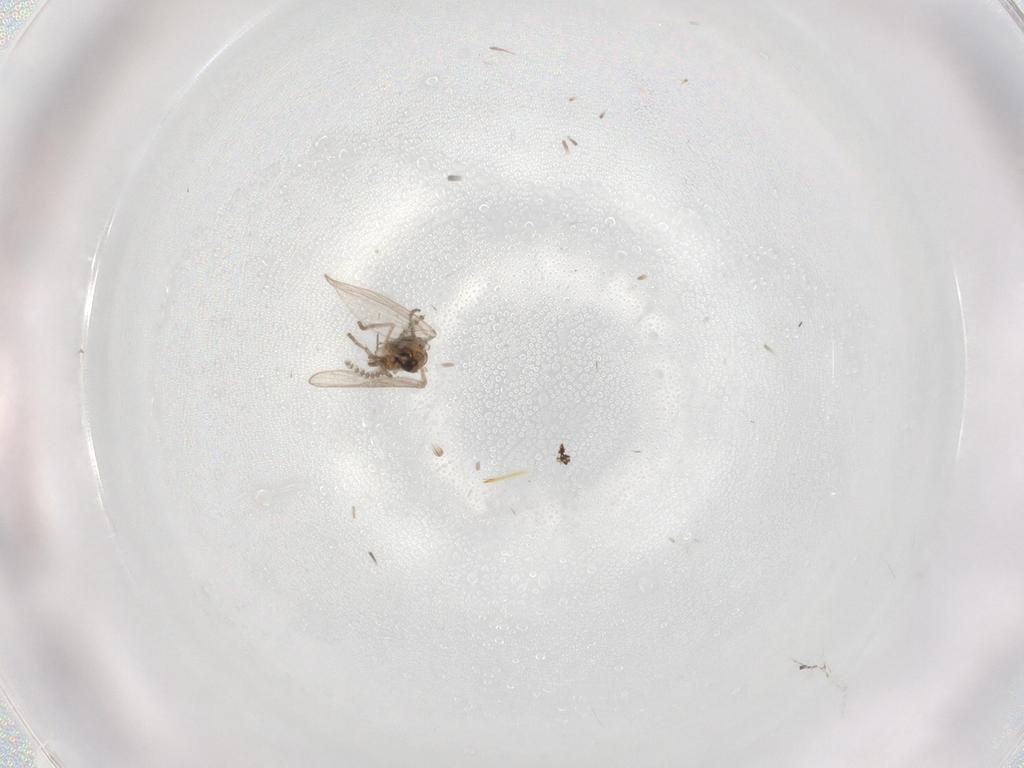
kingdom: Animalia
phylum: Arthropoda
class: Insecta
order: Diptera
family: Psychodidae
